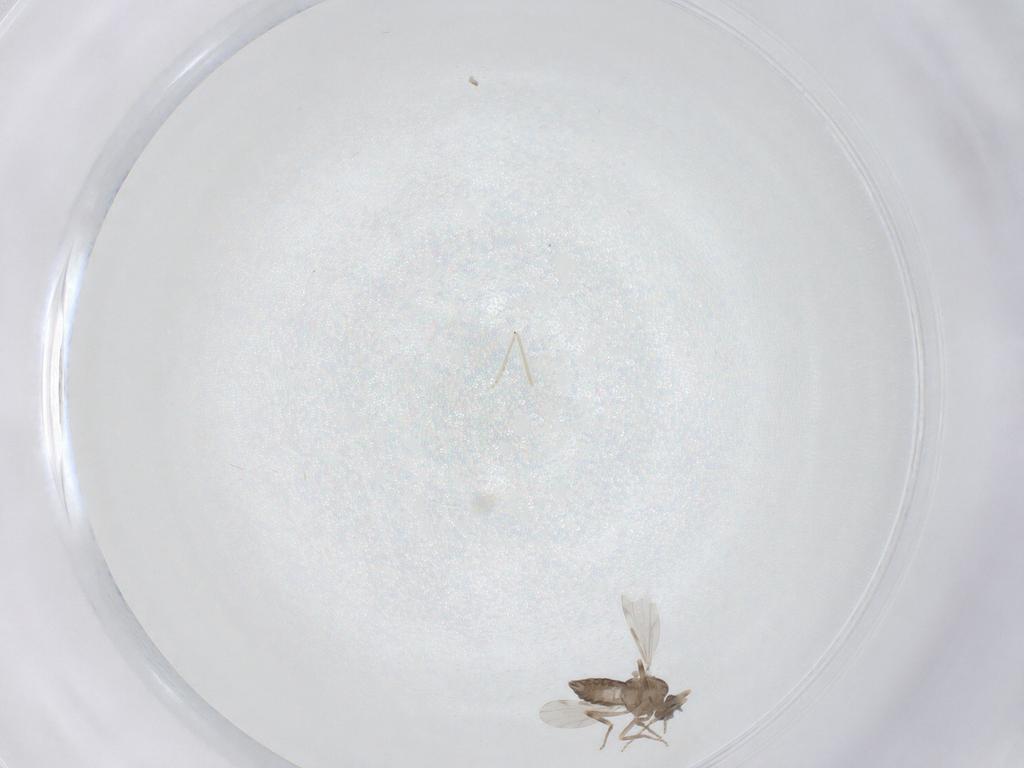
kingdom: Animalia
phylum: Arthropoda
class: Insecta
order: Diptera
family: Ceratopogonidae
